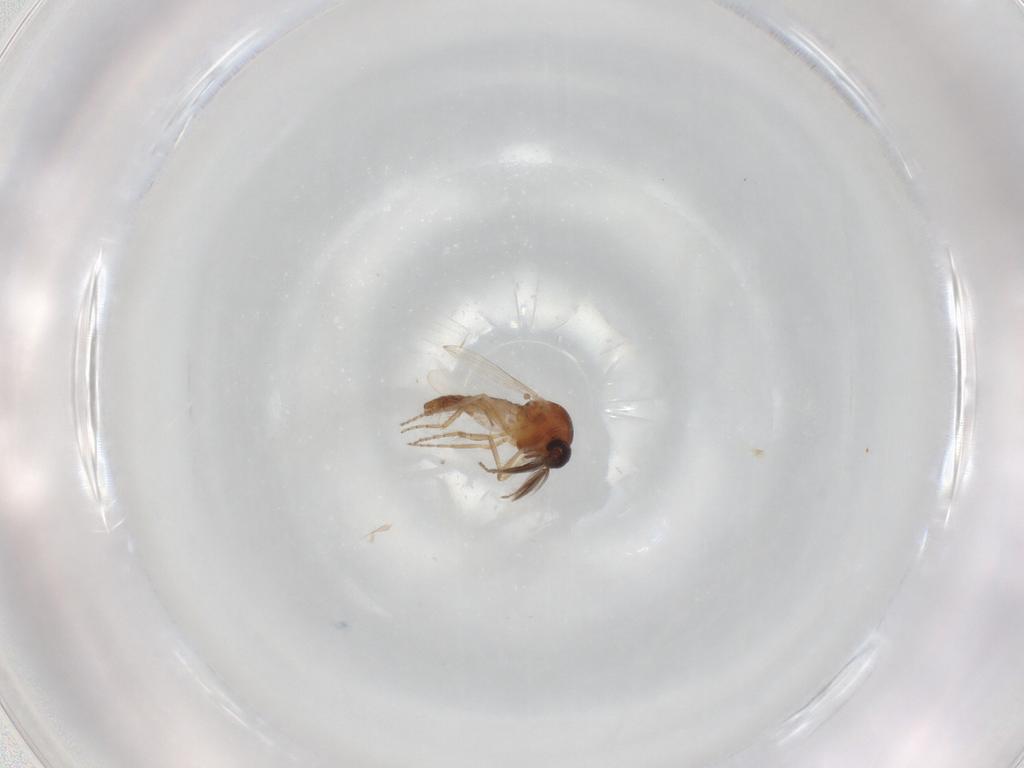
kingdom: Animalia
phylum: Arthropoda
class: Insecta
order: Diptera
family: Ceratopogonidae
